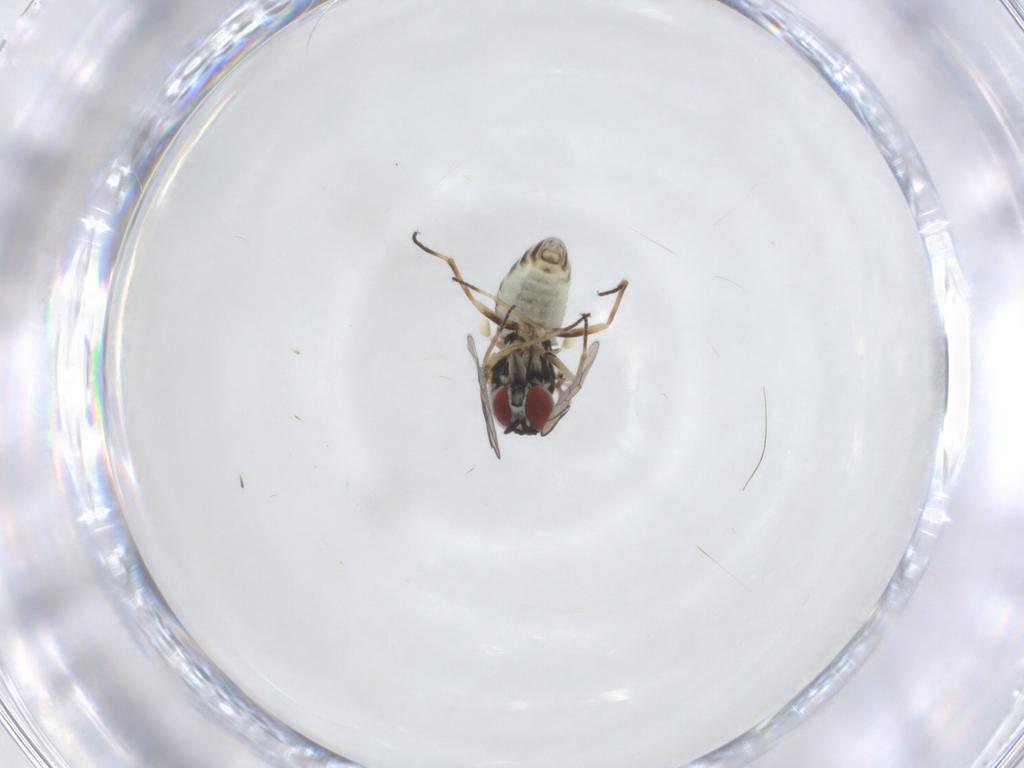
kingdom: Animalia
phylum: Arthropoda
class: Insecta
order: Diptera
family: Bombyliidae
